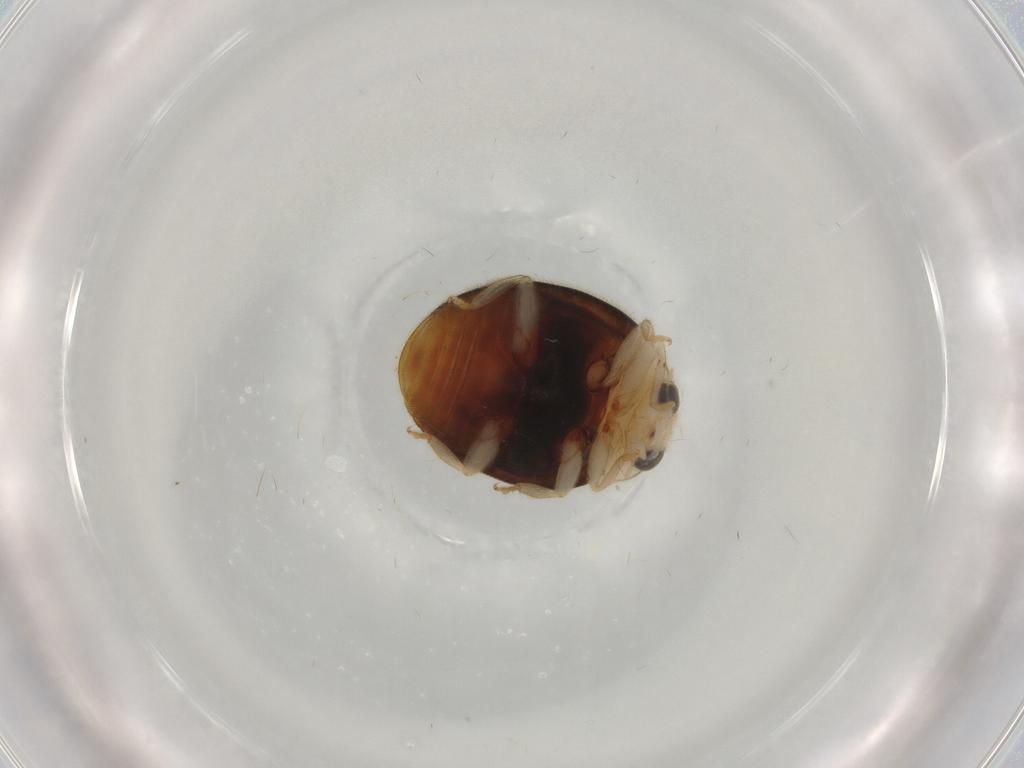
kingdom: Animalia
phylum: Arthropoda
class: Insecta
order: Coleoptera
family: Coccinellidae
